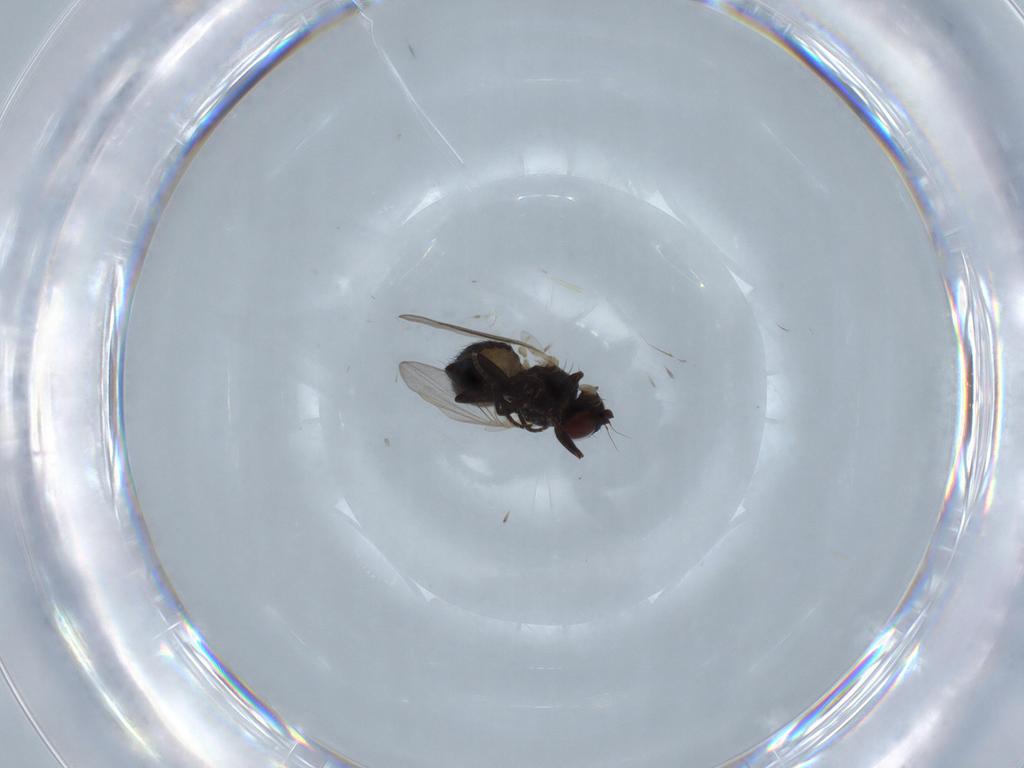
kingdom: Animalia
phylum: Arthropoda
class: Insecta
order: Diptera
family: Agromyzidae
